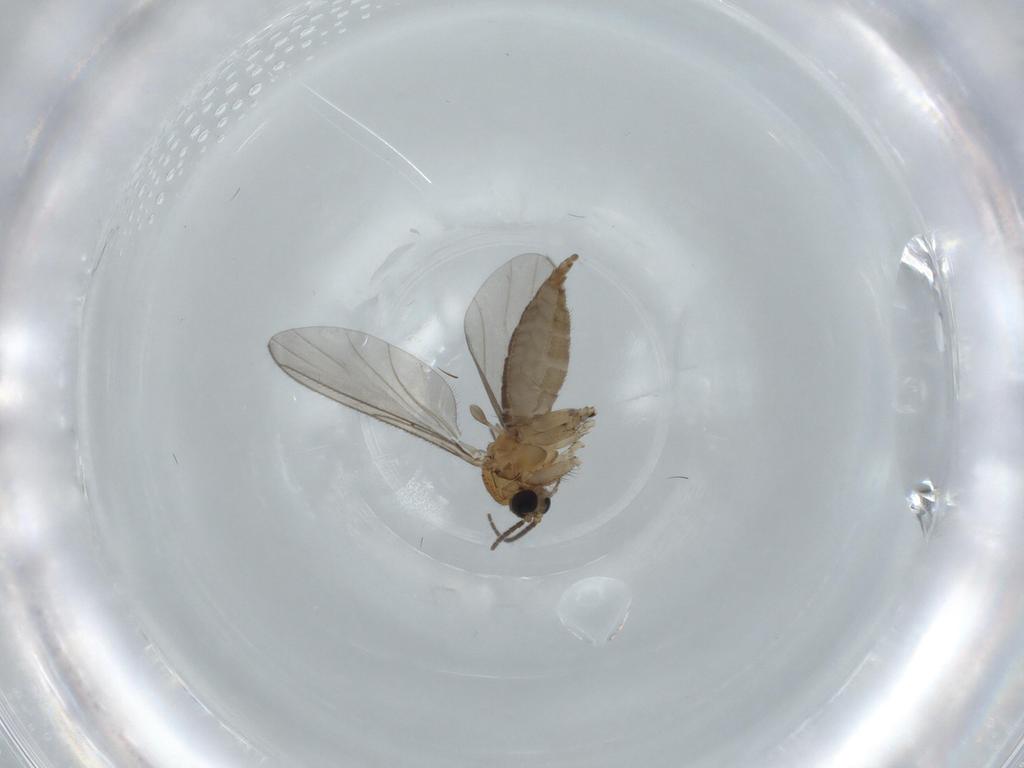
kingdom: Animalia
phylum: Arthropoda
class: Insecta
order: Diptera
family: Sciaridae
